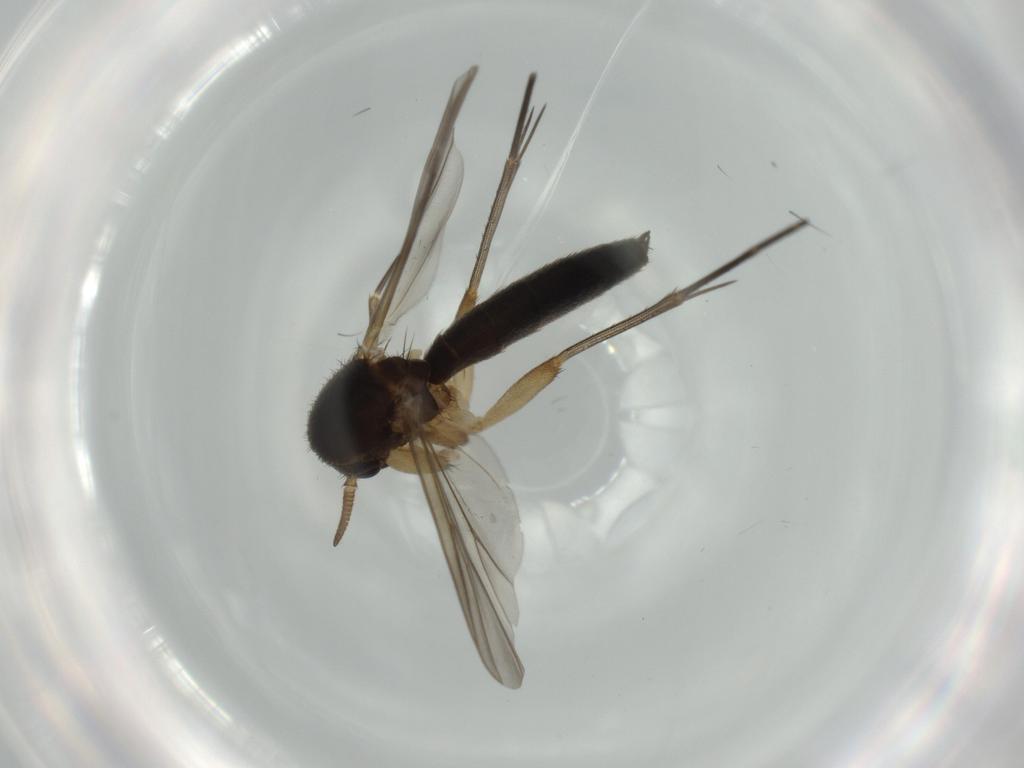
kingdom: Animalia
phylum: Arthropoda
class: Insecta
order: Diptera
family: Mycetophilidae
